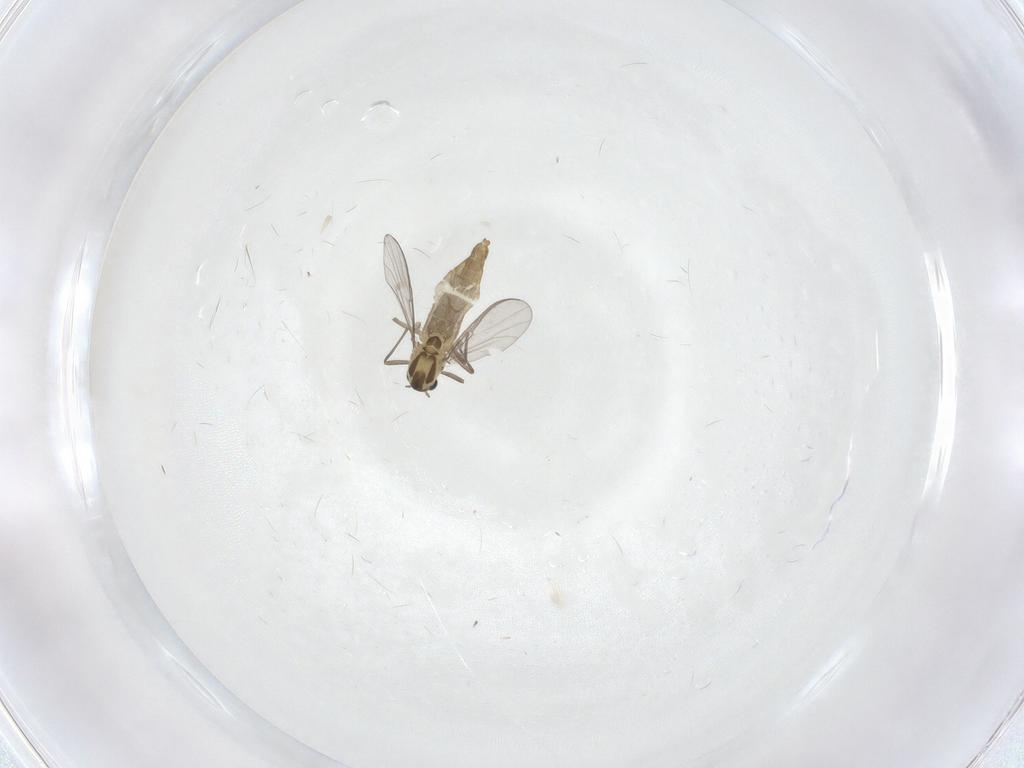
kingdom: Animalia
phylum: Arthropoda
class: Insecta
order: Diptera
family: Chironomidae
